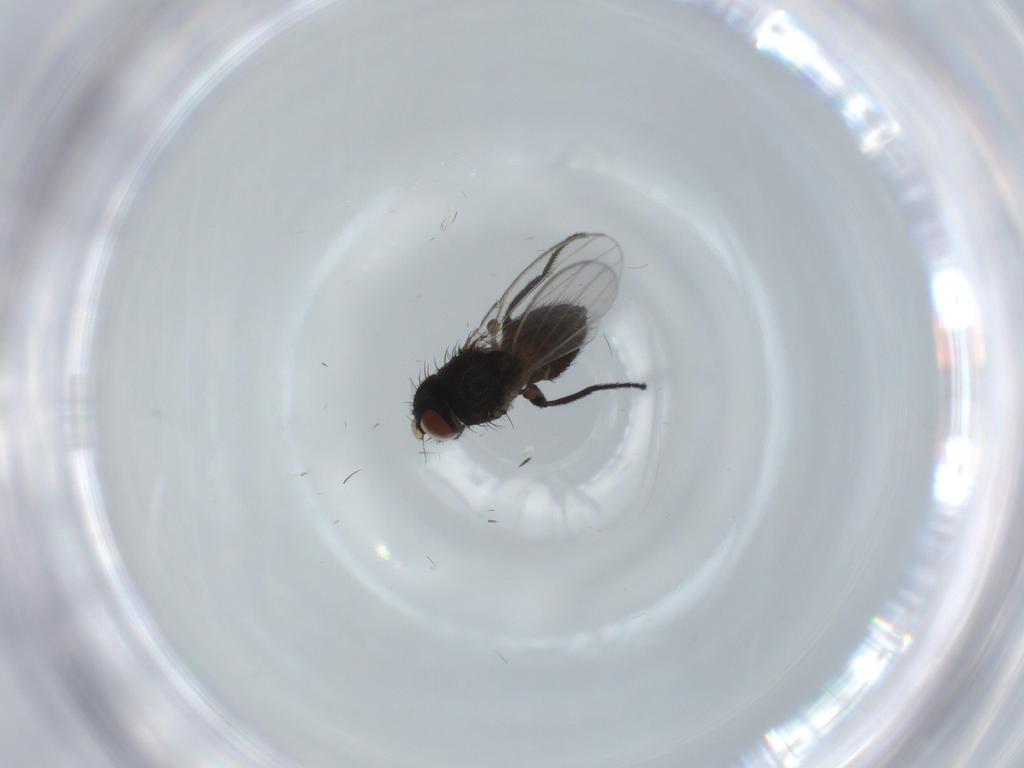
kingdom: Animalia
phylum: Arthropoda
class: Insecta
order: Diptera
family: Milichiidae
